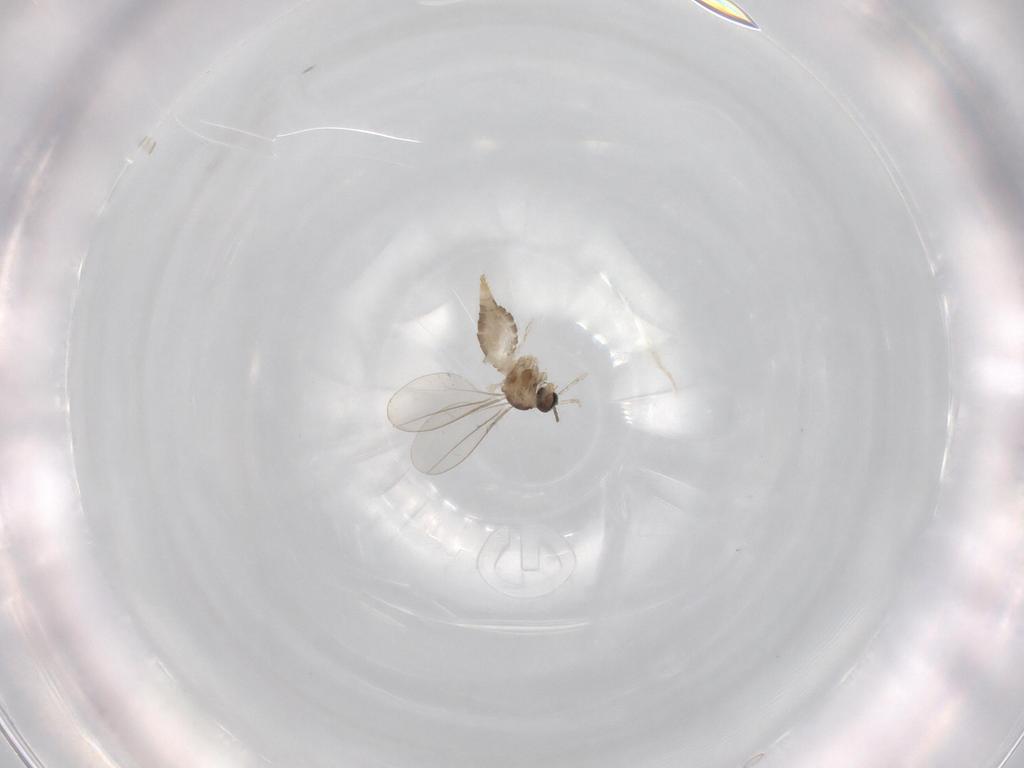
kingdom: Animalia
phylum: Arthropoda
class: Insecta
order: Diptera
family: Cecidomyiidae
